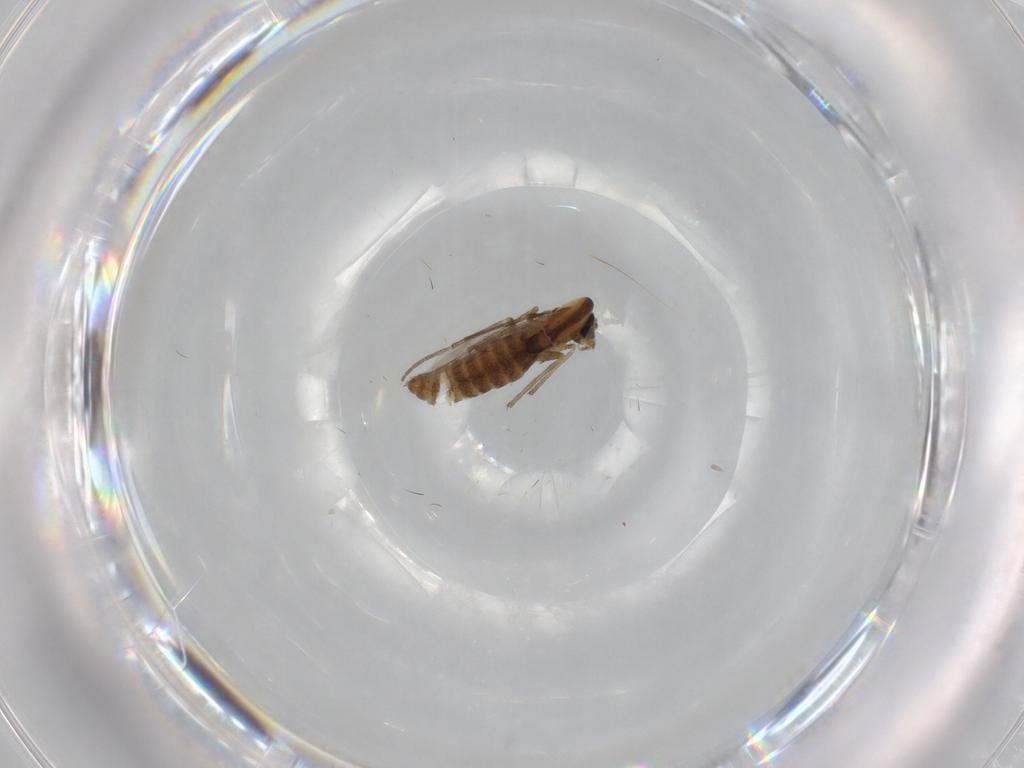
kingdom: Animalia
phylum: Arthropoda
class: Insecta
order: Diptera
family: Chironomidae
